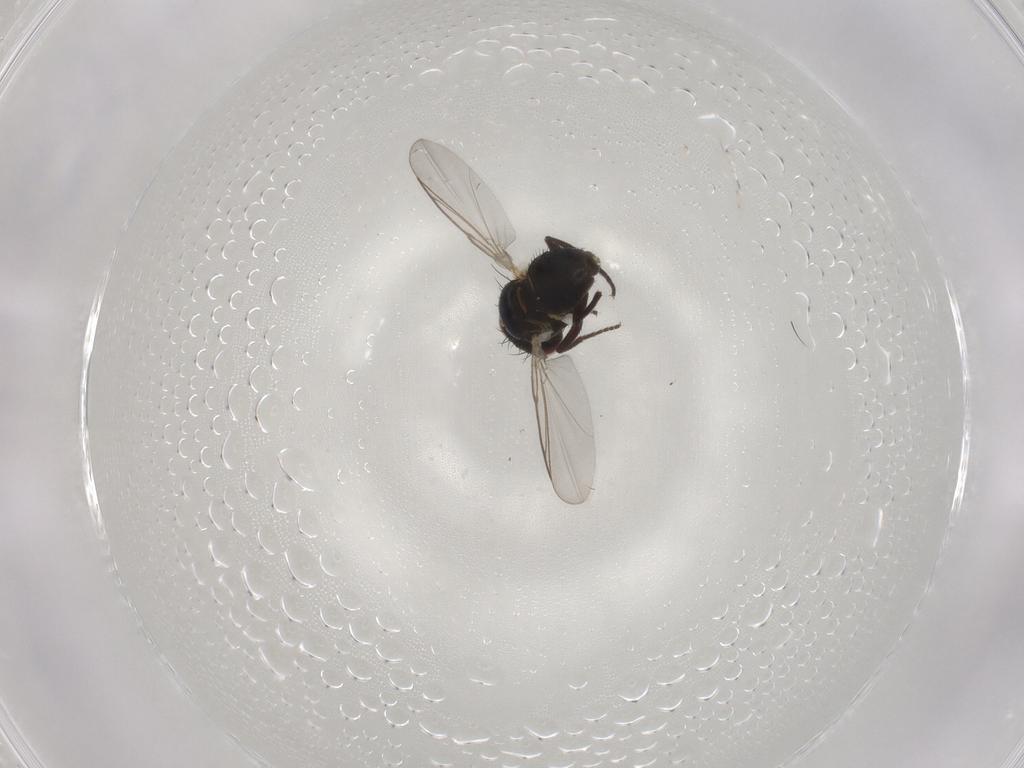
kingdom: Animalia
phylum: Arthropoda
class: Insecta
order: Diptera
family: Agromyzidae
